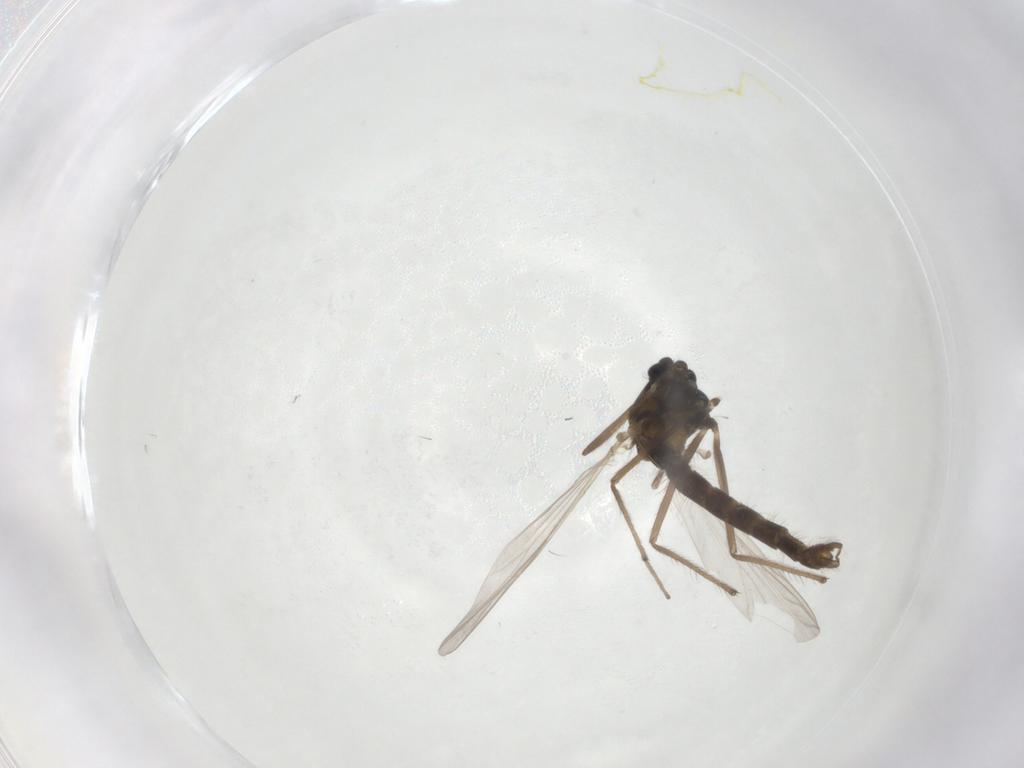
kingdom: Animalia
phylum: Arthropoda
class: Insecta
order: Diptera
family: Chironomidae
